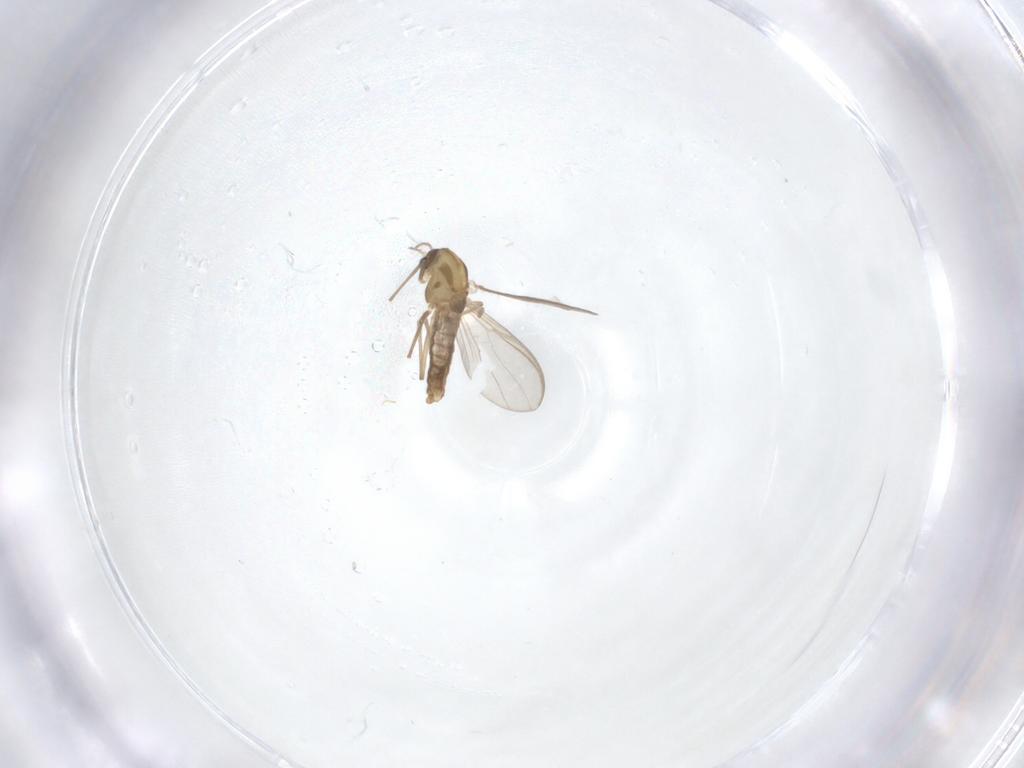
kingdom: Animalia
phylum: Arthropoda
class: Insecta
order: Diptera
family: Chironomidae
